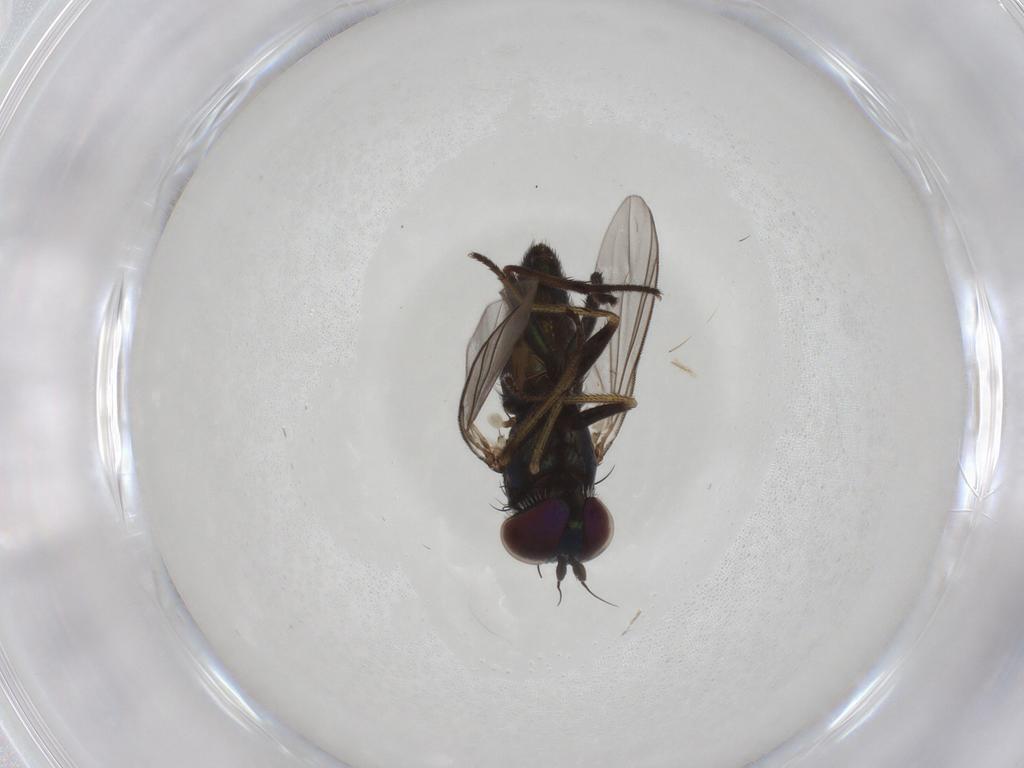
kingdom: Animalia
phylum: Arthropoda
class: Insecta
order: Diptera
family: Dolichopodidae
